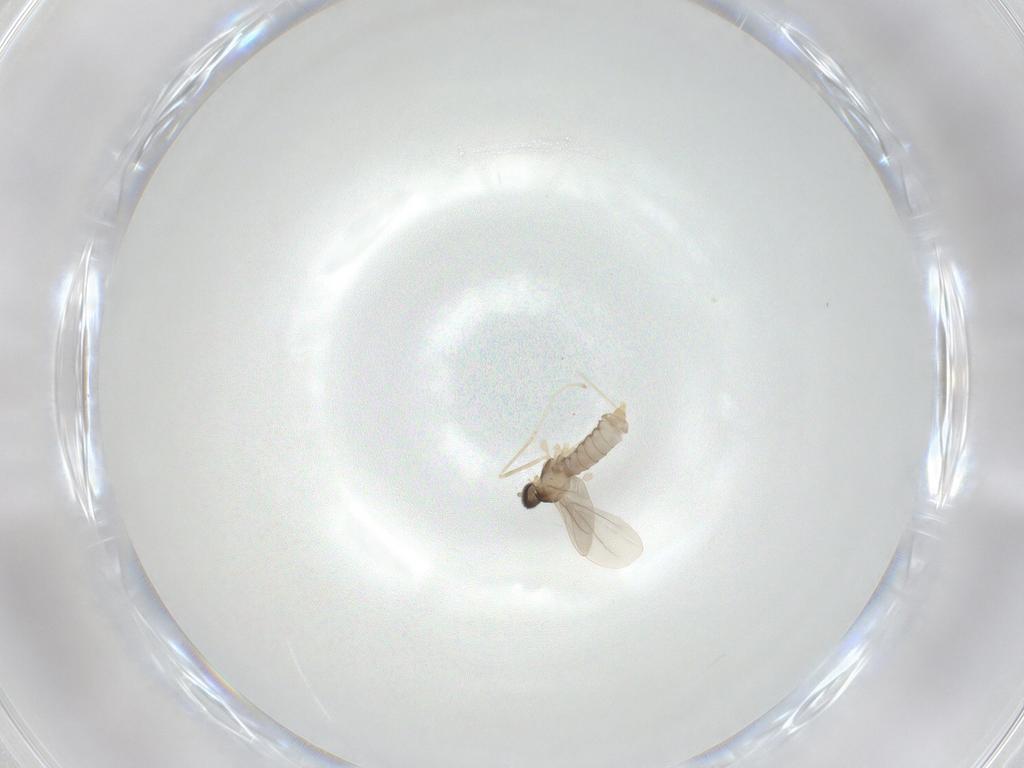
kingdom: Animalia
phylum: Arthropoda
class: Insecta
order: Diptera
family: Cecidomyiidae
